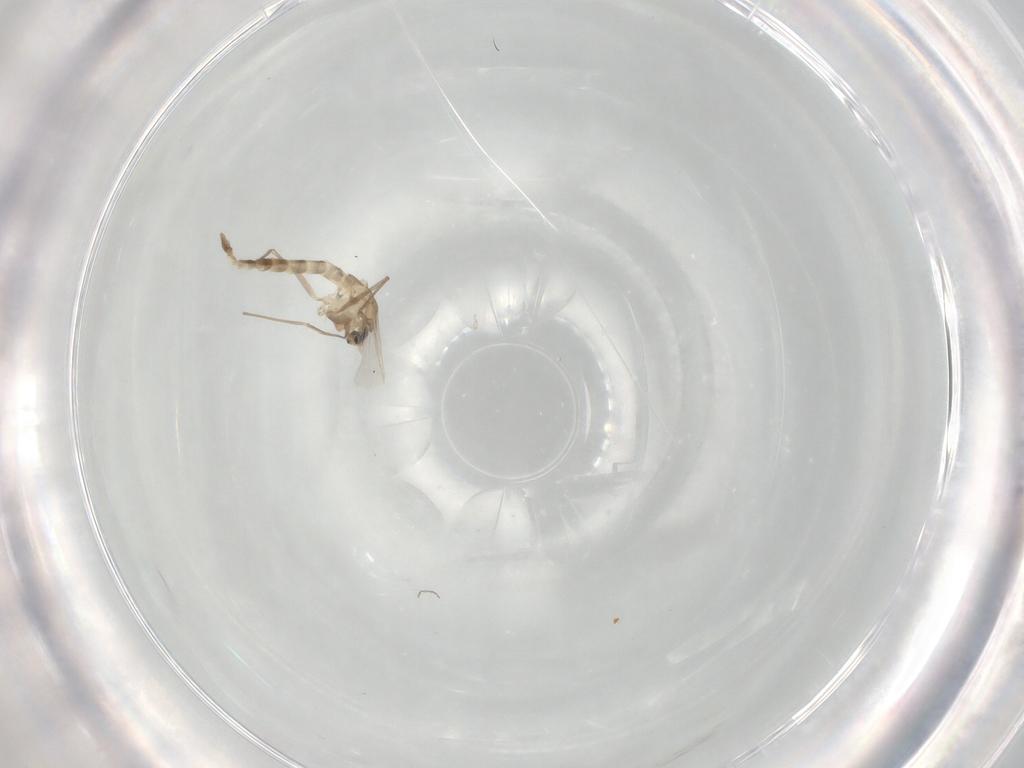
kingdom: Animalia
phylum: Arthropoda
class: Insecta
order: Diptera
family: Chironomidae
